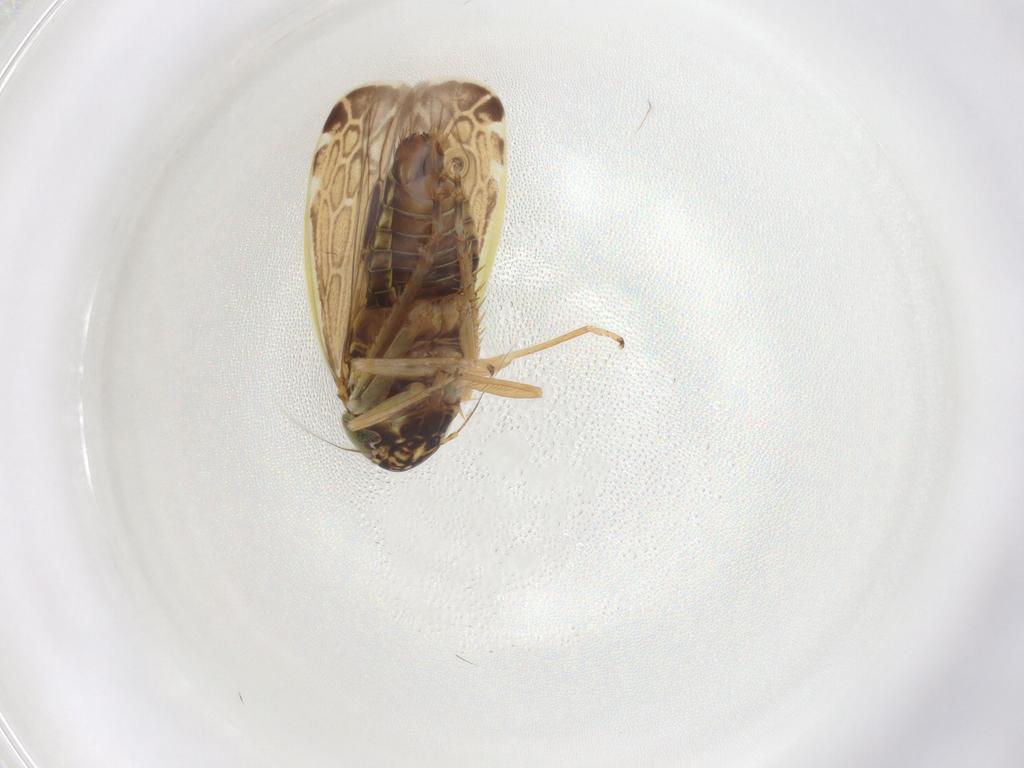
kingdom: Animalia
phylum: Arthropoda
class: Insecta
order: Hemiptera
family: Cicadellidae
